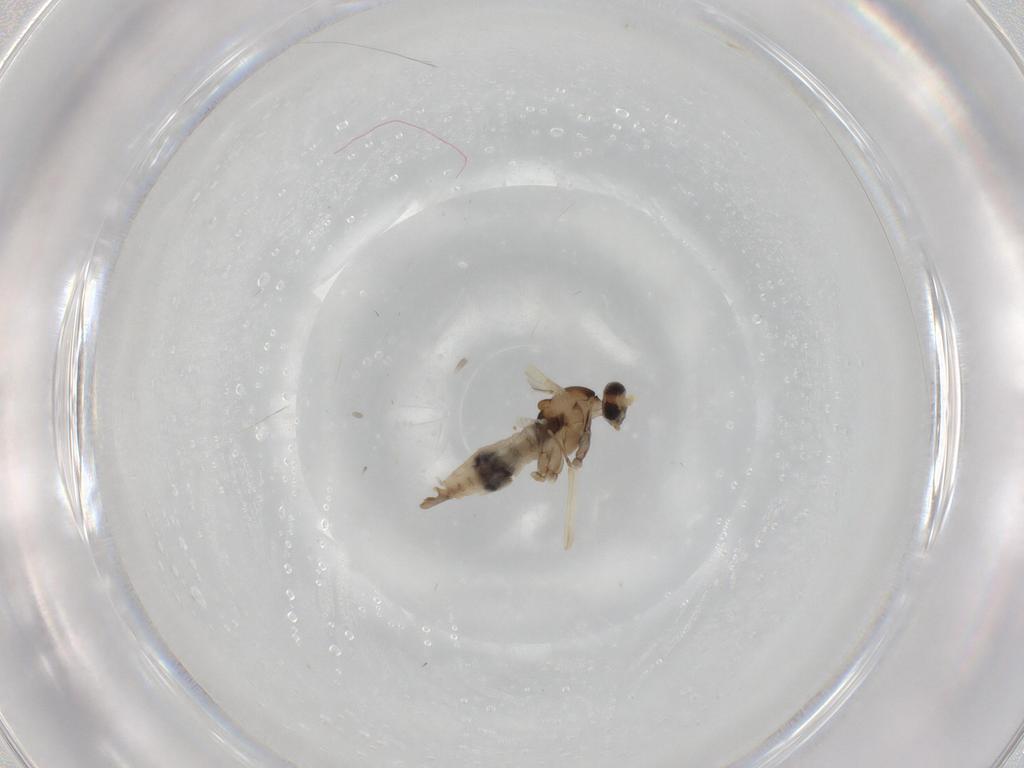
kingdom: Animalia
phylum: Arthropoda
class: Insecta
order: Diptera
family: Cecidomyiidae
